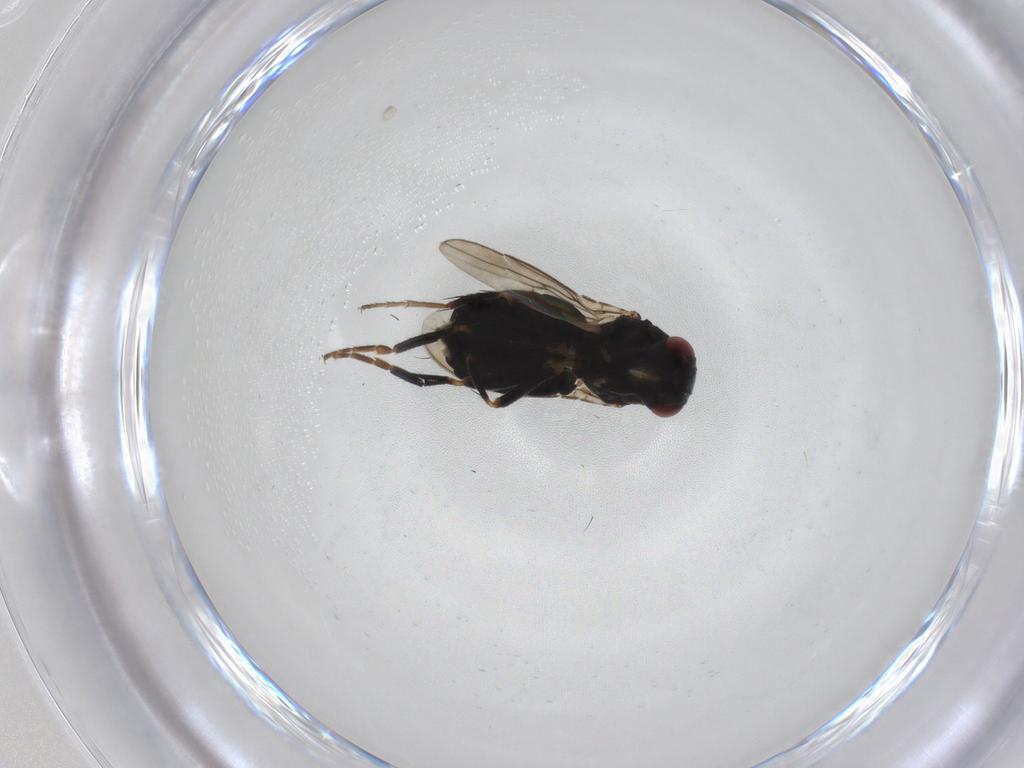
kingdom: Animalia
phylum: Arthropoda
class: Insecta
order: Diptera
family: Sphaeroceridae
